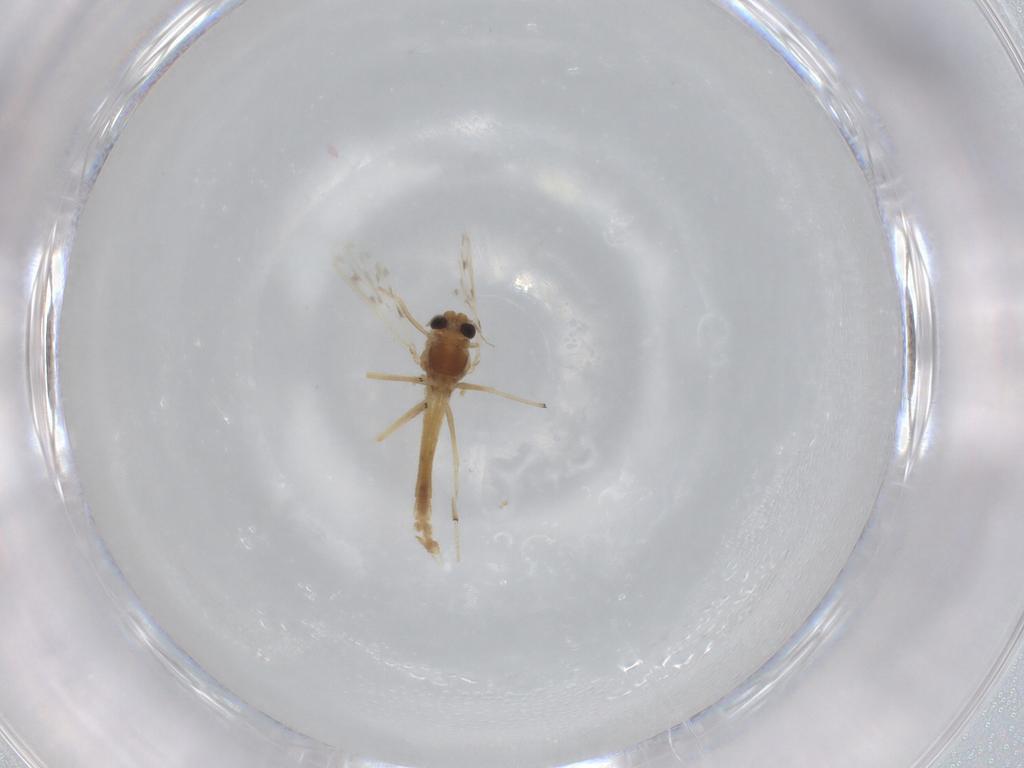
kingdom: Animalia
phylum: Arthropoda
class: Insecta
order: Diptera
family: Chironomidae
